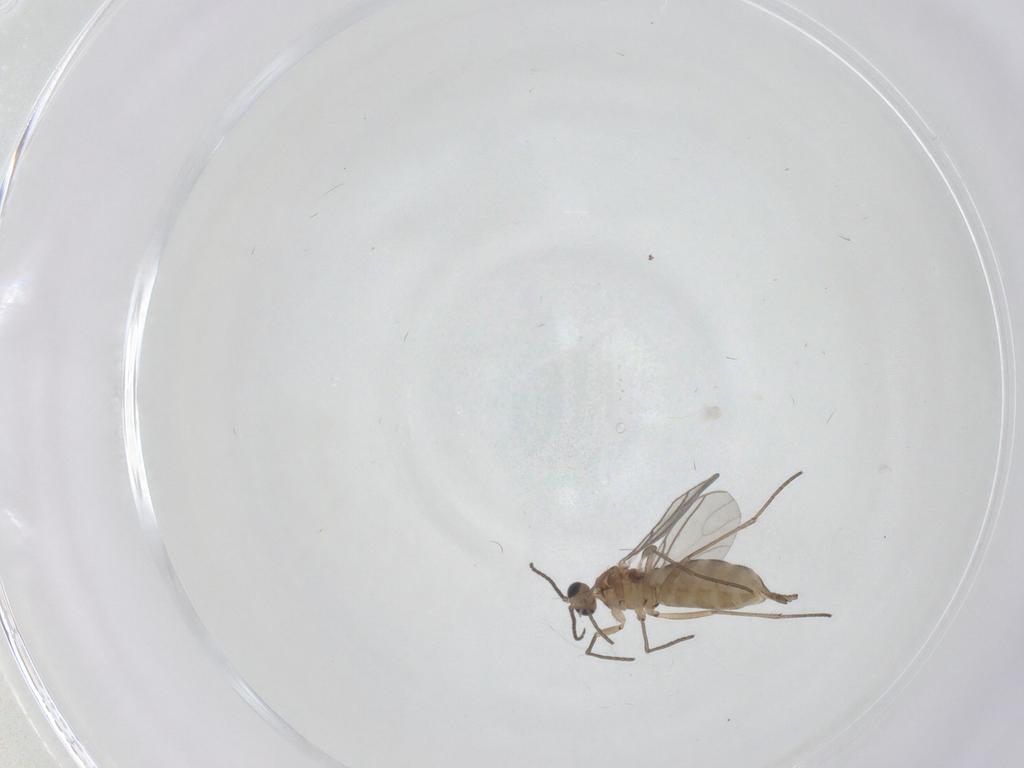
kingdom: Animalia
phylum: Arthropoda
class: Insecta
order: Diptera
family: Sciaridae
